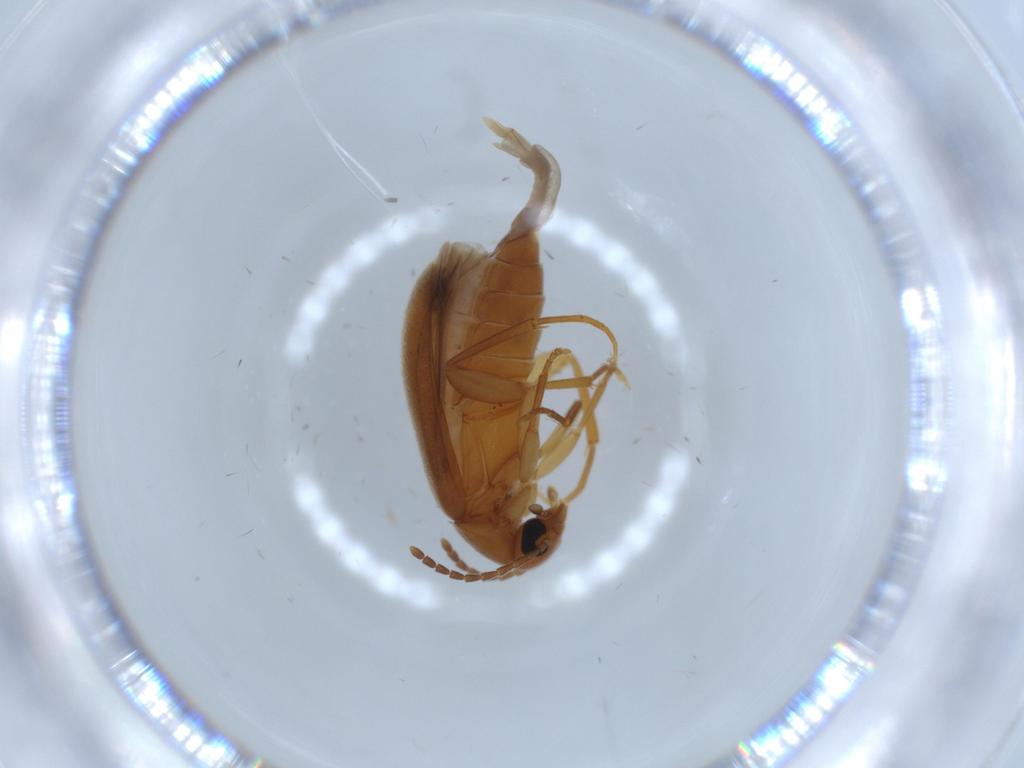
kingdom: Animalia
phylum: Arthropoda
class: Insecta
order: Coleoptera
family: Scraptiidae
